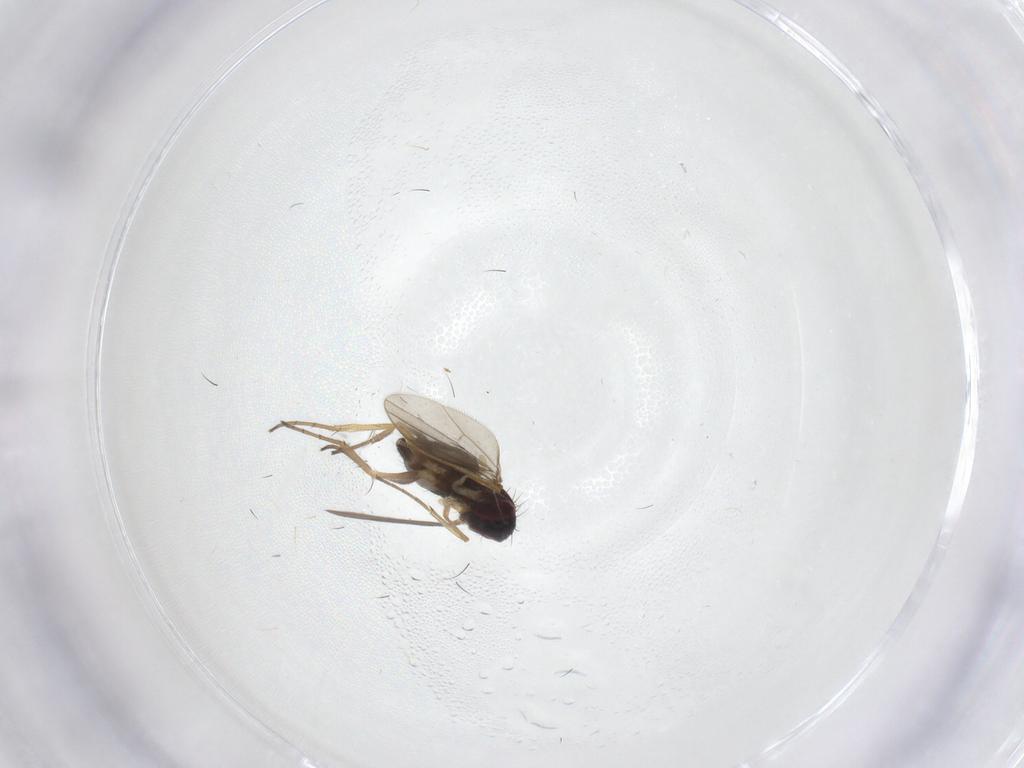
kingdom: Animalia
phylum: Arthropoda
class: Insecta
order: Diptera
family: Dolichopodidae
